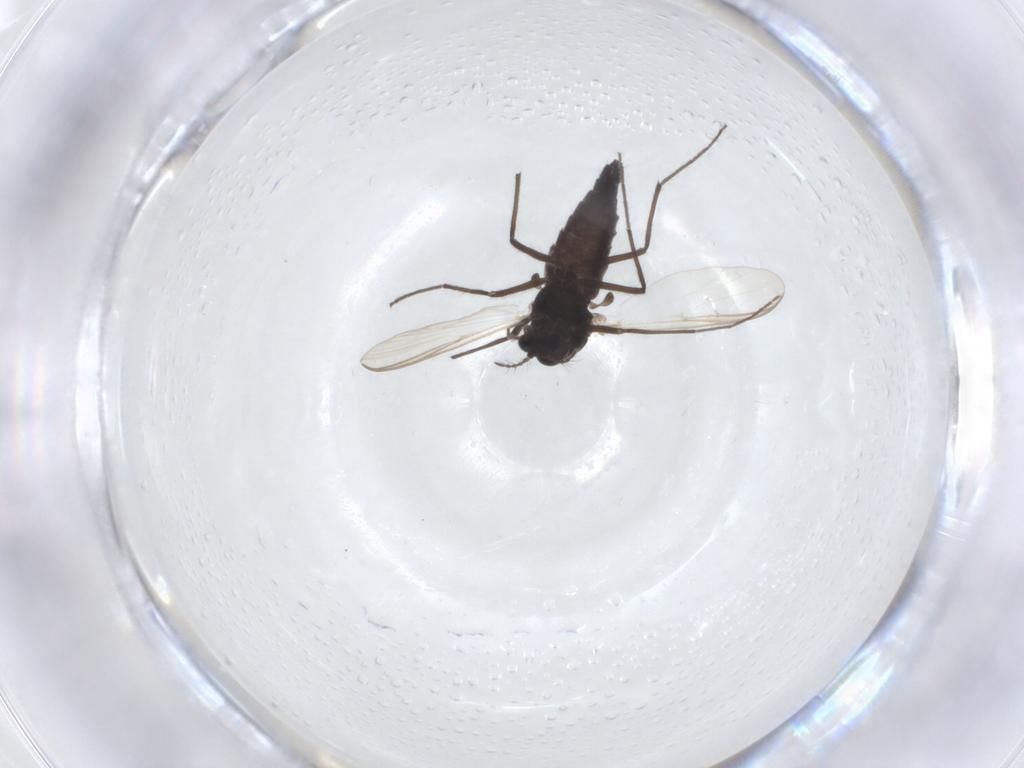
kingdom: Animalia
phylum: Arthropoda
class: Insecta
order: Diptera
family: Chironomidae
